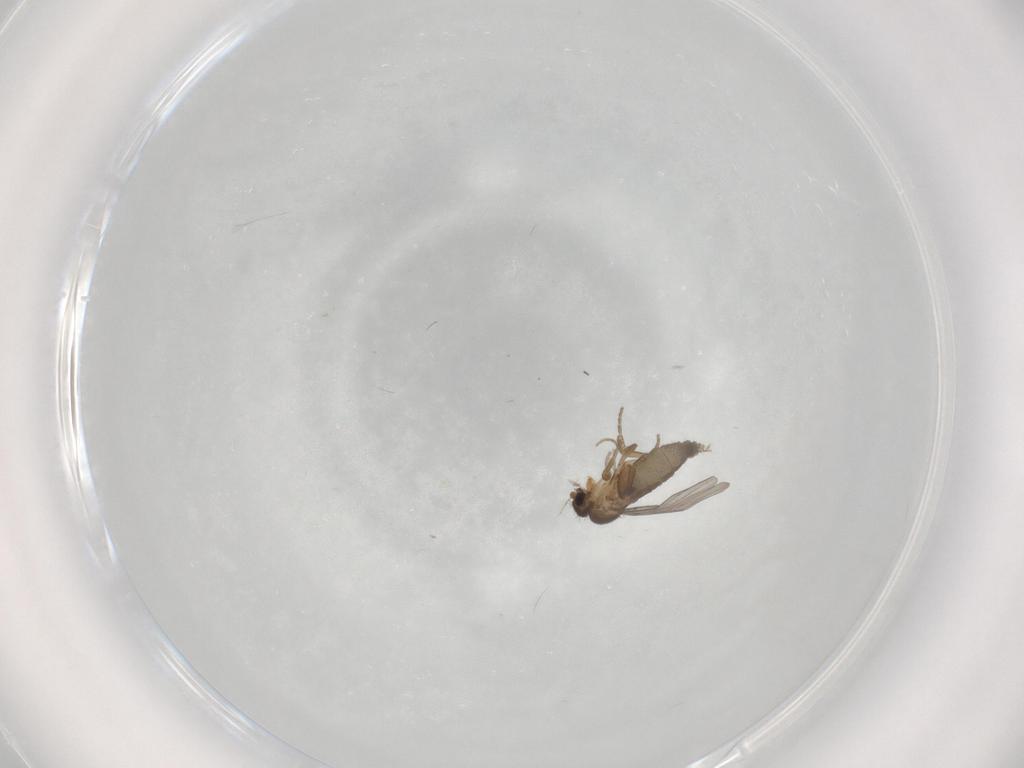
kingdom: Animalia
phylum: Arthropoda
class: Insecta
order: Diptera
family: Phoridae
